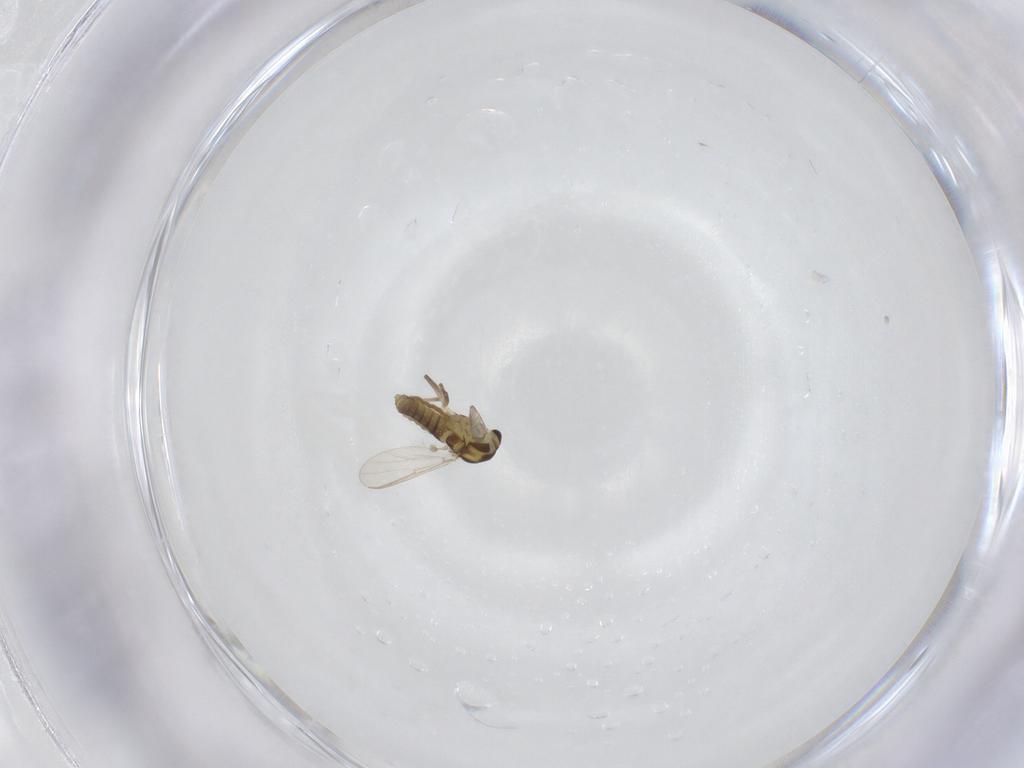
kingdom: Animalia
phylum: Arthropoda
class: Insecta
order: Diptera
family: Chironomidae
